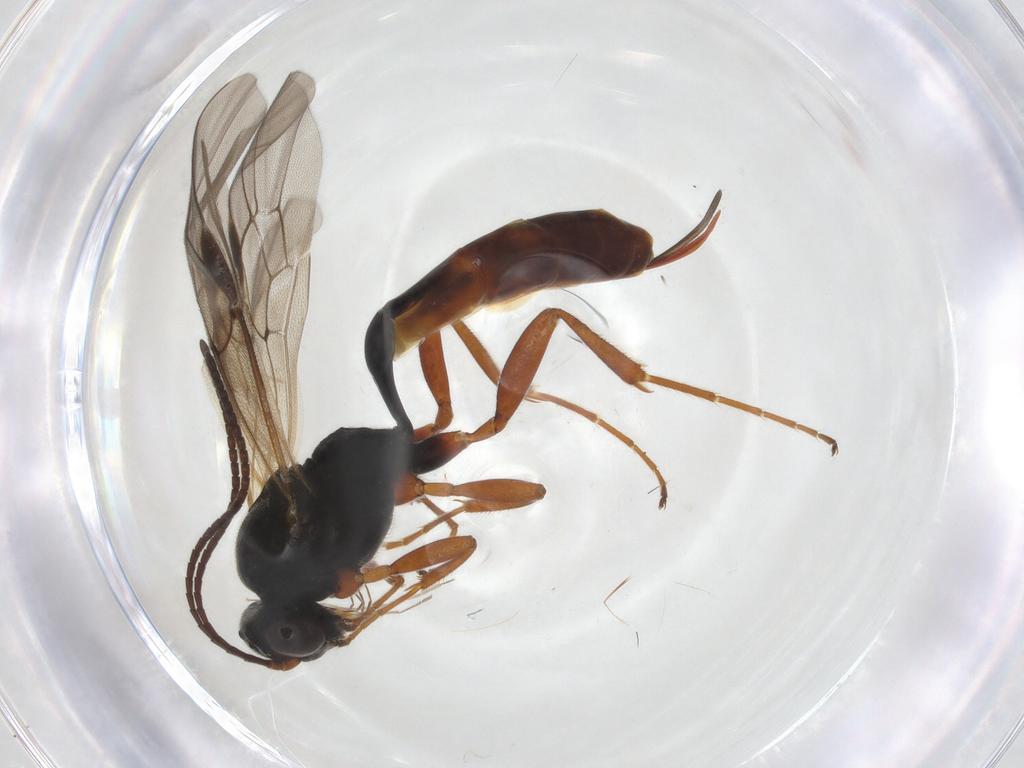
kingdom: Animalia
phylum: Arthropoda
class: Insecta
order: Hymenoptera
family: Ichneumonidae
